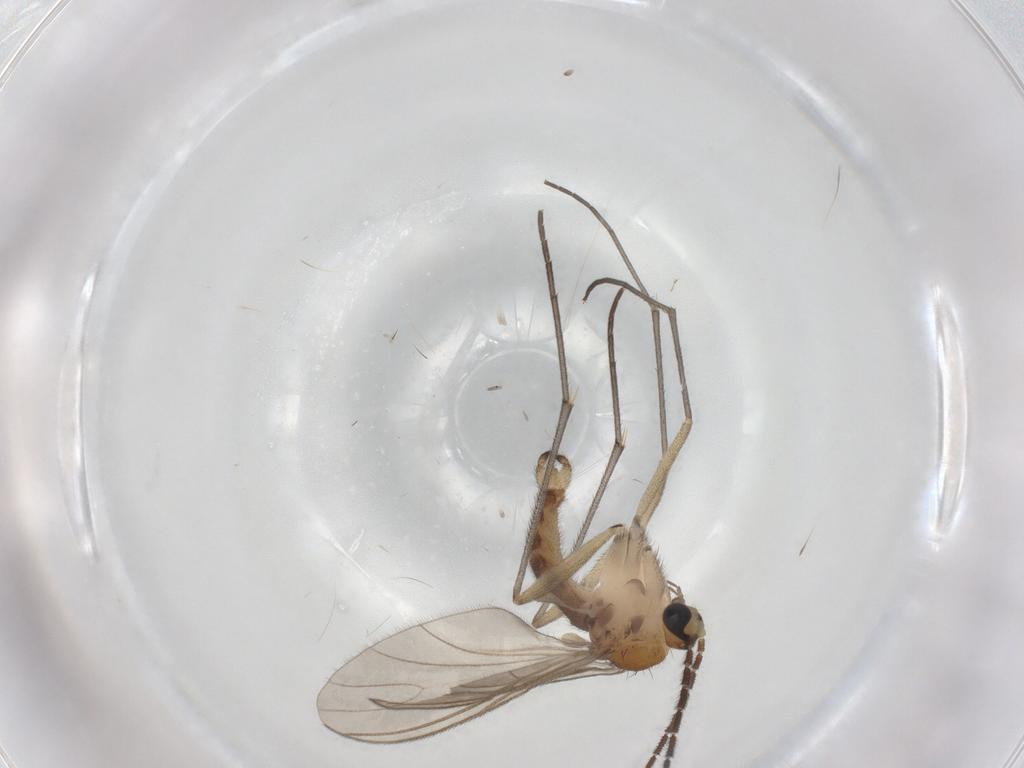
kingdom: Animalia
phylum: Arthropoda
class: Insecta
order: Diptera
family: Sciaridae
